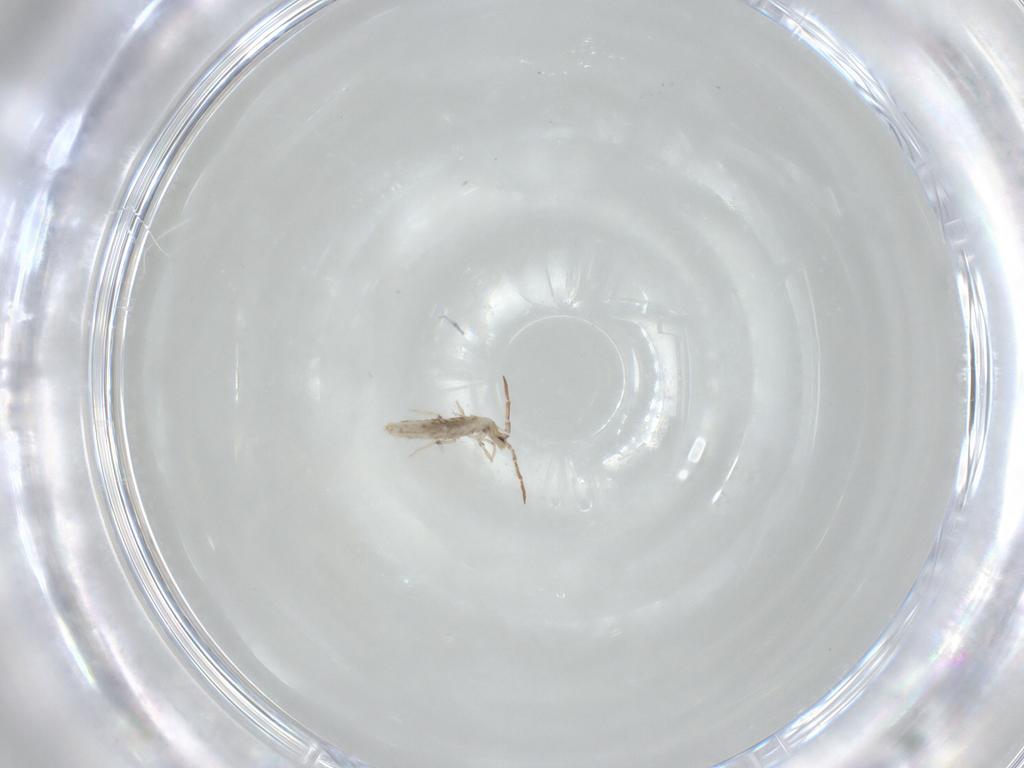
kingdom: Animalia
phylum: Arthropoda
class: Collembola
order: Entomobryomorpha
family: Entomobryidae
